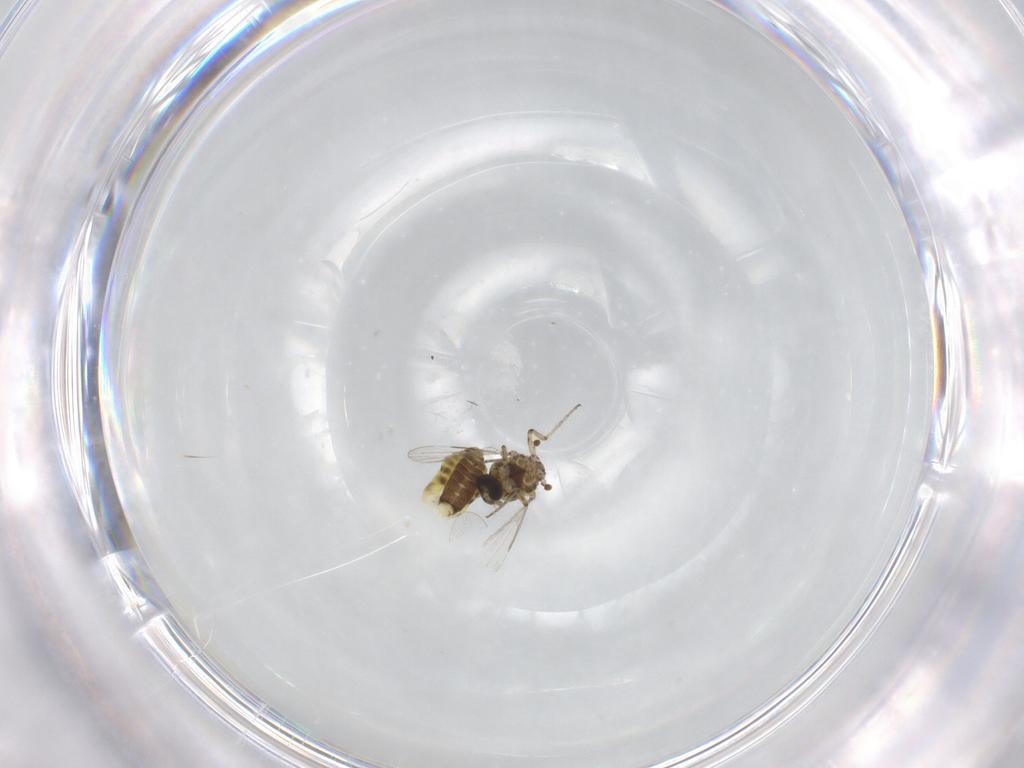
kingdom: Animalia
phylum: Arthropoda
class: Insecta
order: Diptera
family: Ceratopogonidae
